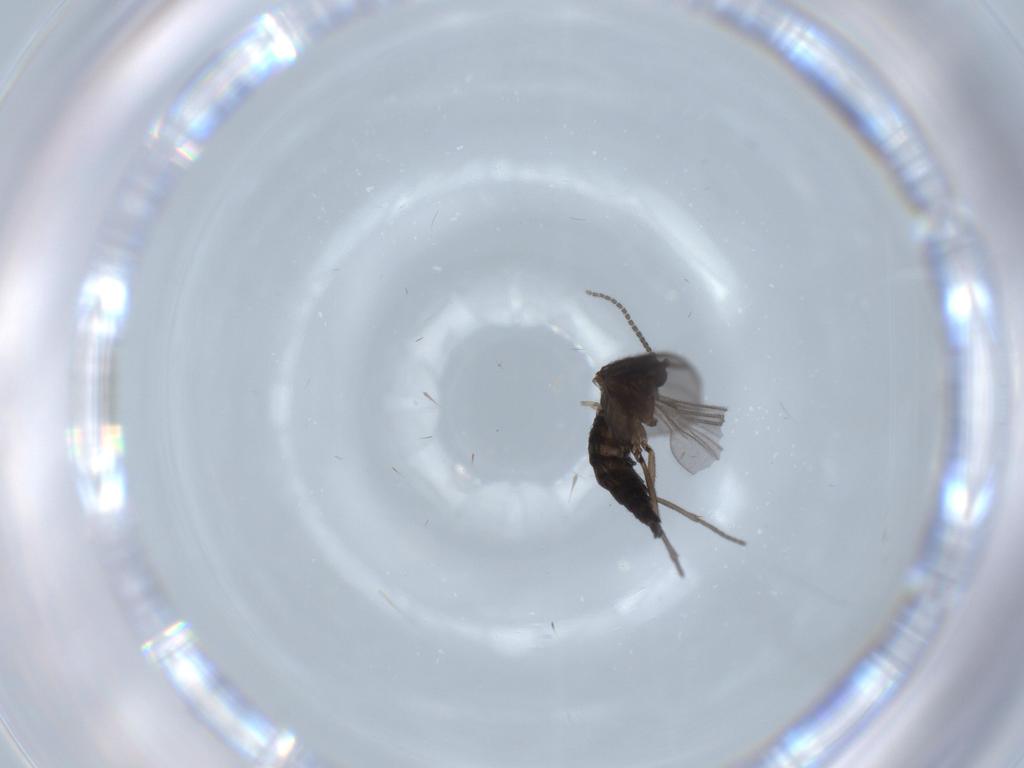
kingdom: Animalia
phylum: Arthropoda
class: Insecta
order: Diptera
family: Sciaridae
